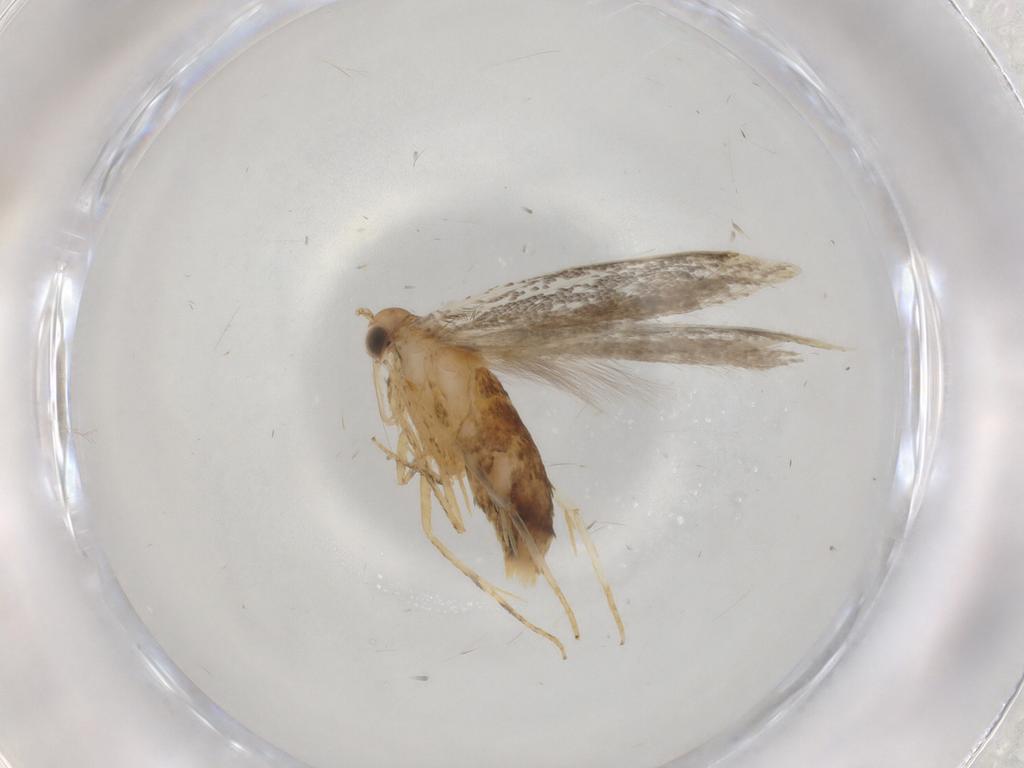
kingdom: Animalia
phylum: Arthropoda
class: Insecta
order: Lepidoptera
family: Gelechiidae
